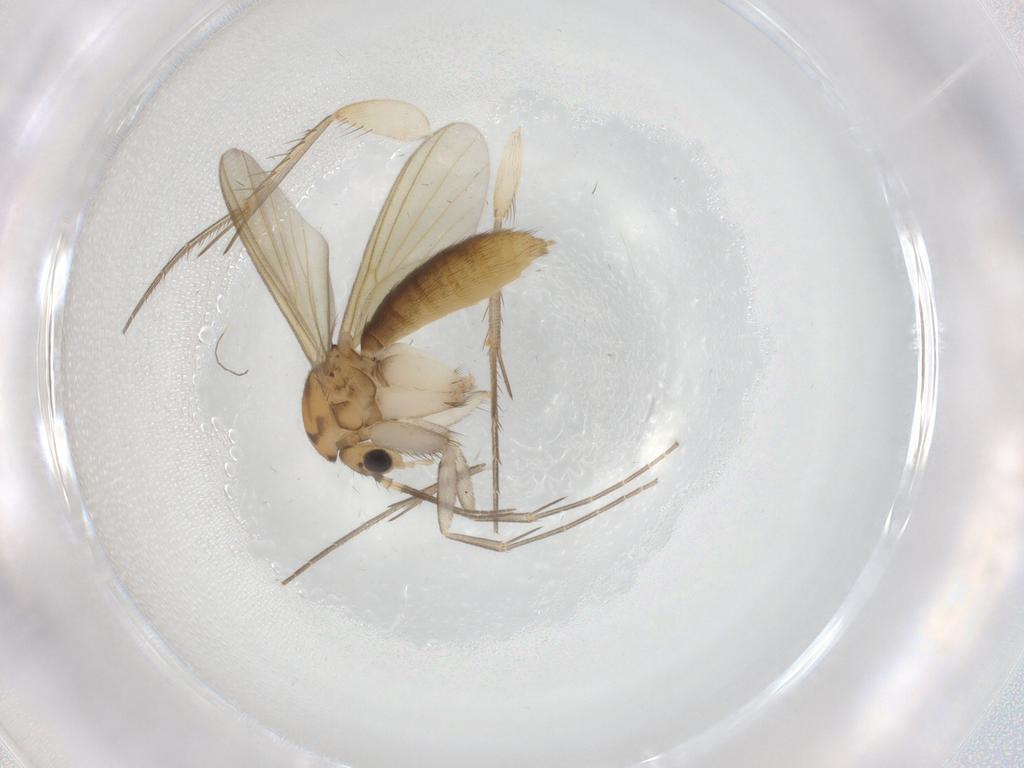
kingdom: Animalia
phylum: Arthropoda
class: Insecta
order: Diptera
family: Mycetophilidae
